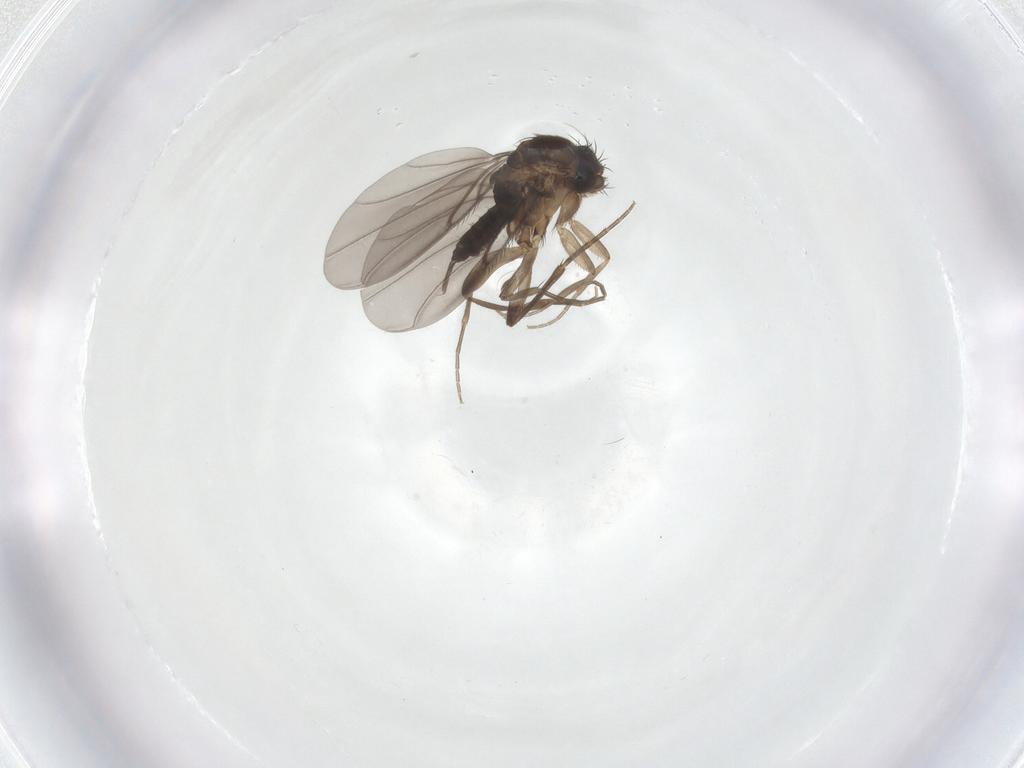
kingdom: Animalia
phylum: Arthropoda
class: Insecta
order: Diptera
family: Phoridae
